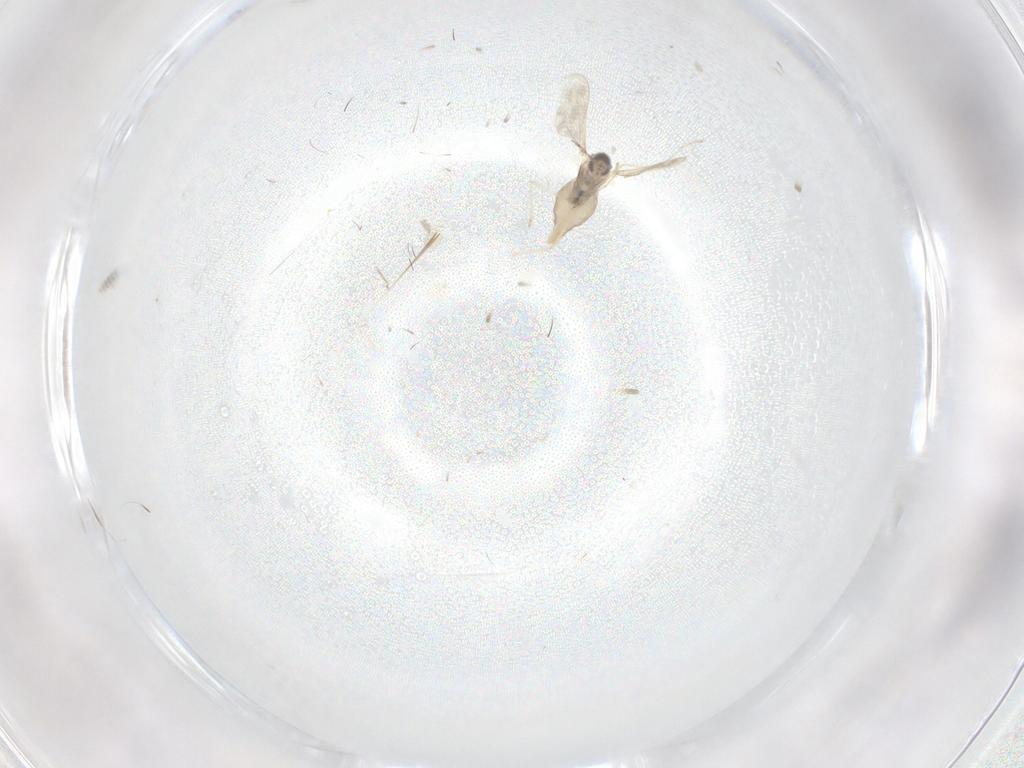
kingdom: Animalia
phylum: Arthropoda
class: Insecta
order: Diptera
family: Cecidomyiidae
